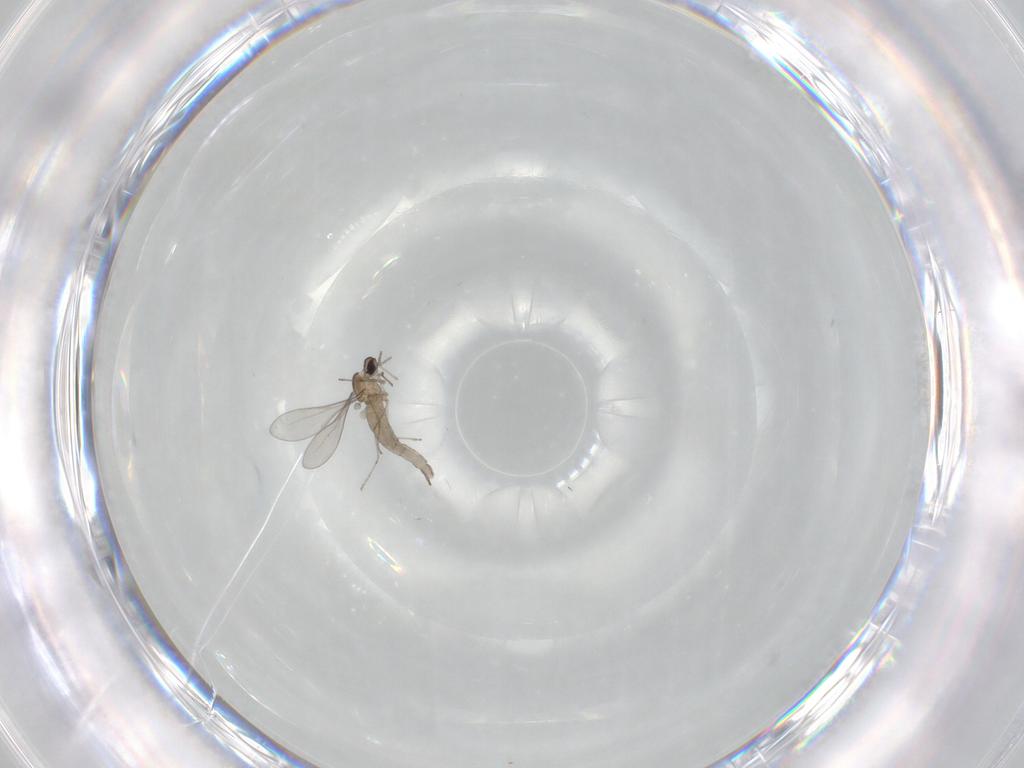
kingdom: Animalia
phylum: Arthropoda
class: Insecta
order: Diptera
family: Cecidomyiidae
